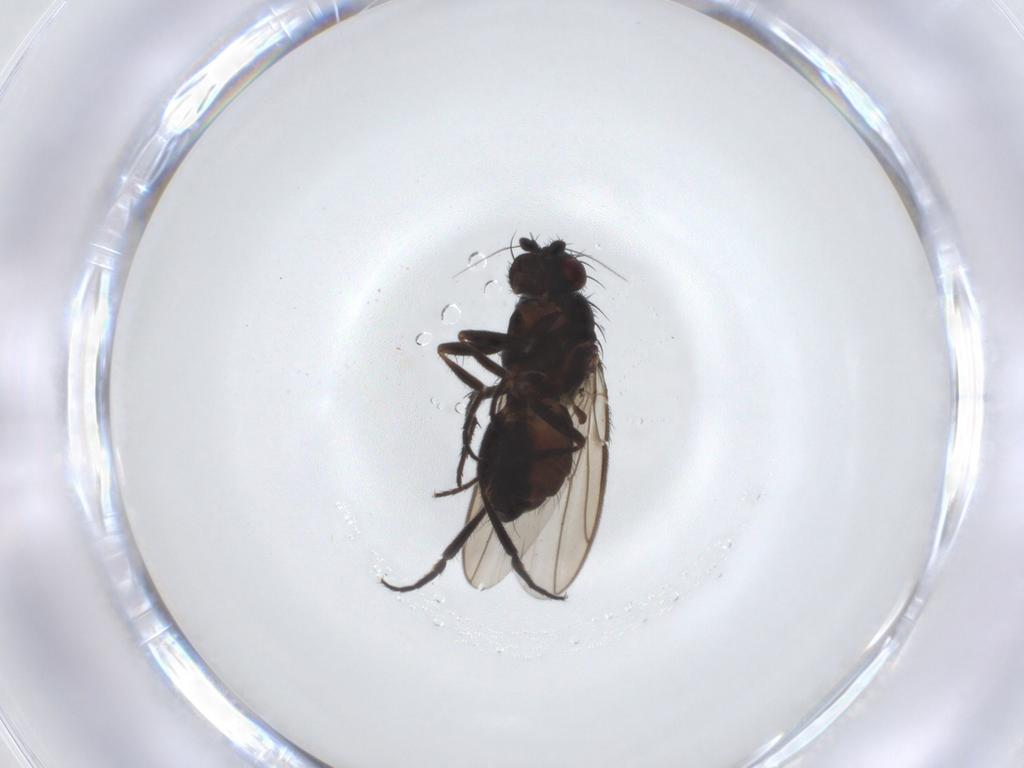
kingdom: Animalia
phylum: Arthropoda
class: Insecta
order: Diptera
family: Sphaeroceridae
